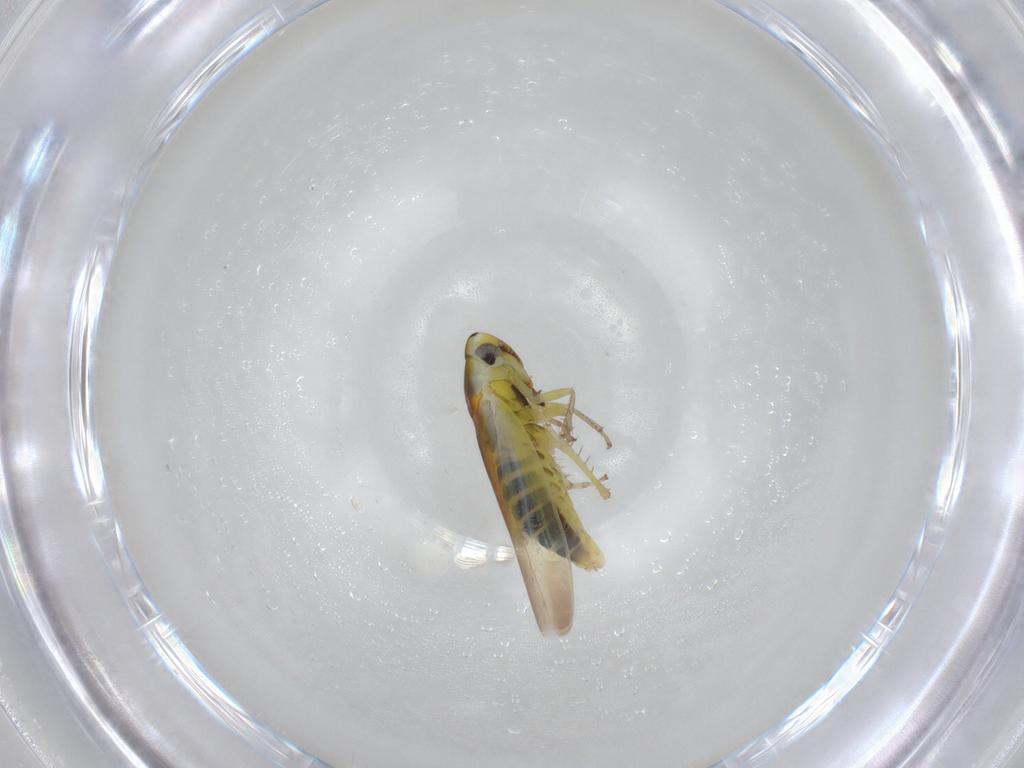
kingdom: Animalia
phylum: Arthropoda
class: Insecta
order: Diptera
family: Pipunculidae
